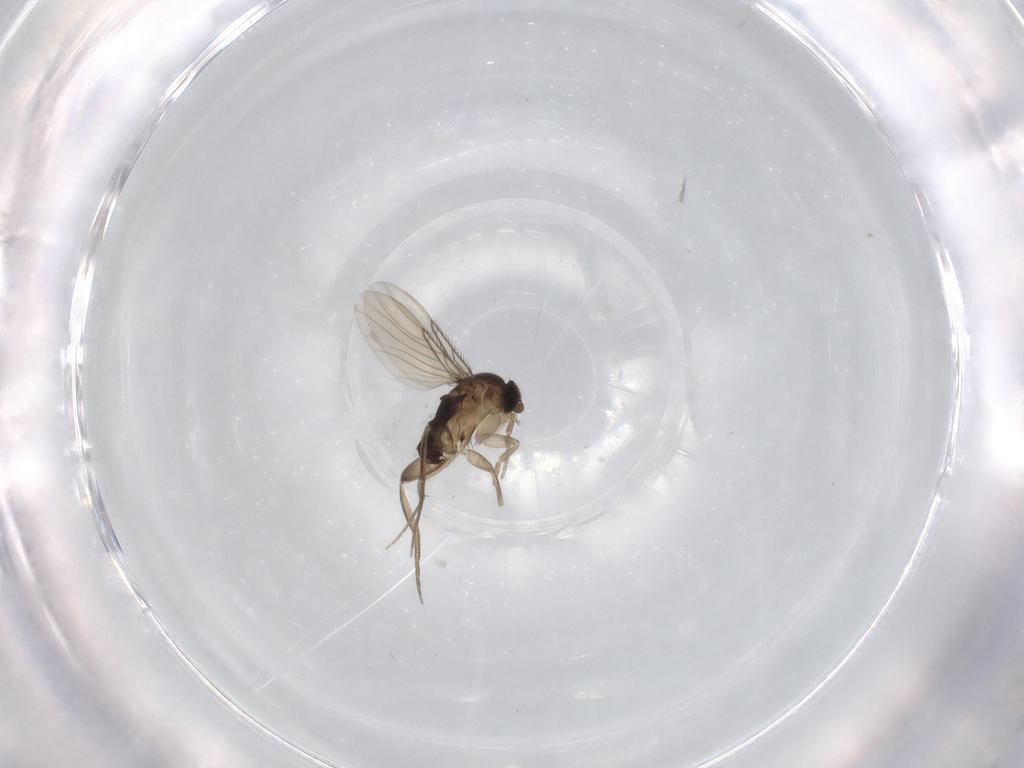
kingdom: Animalia
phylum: Arthropoda
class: Insecta
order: Diptera
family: Phoridae
